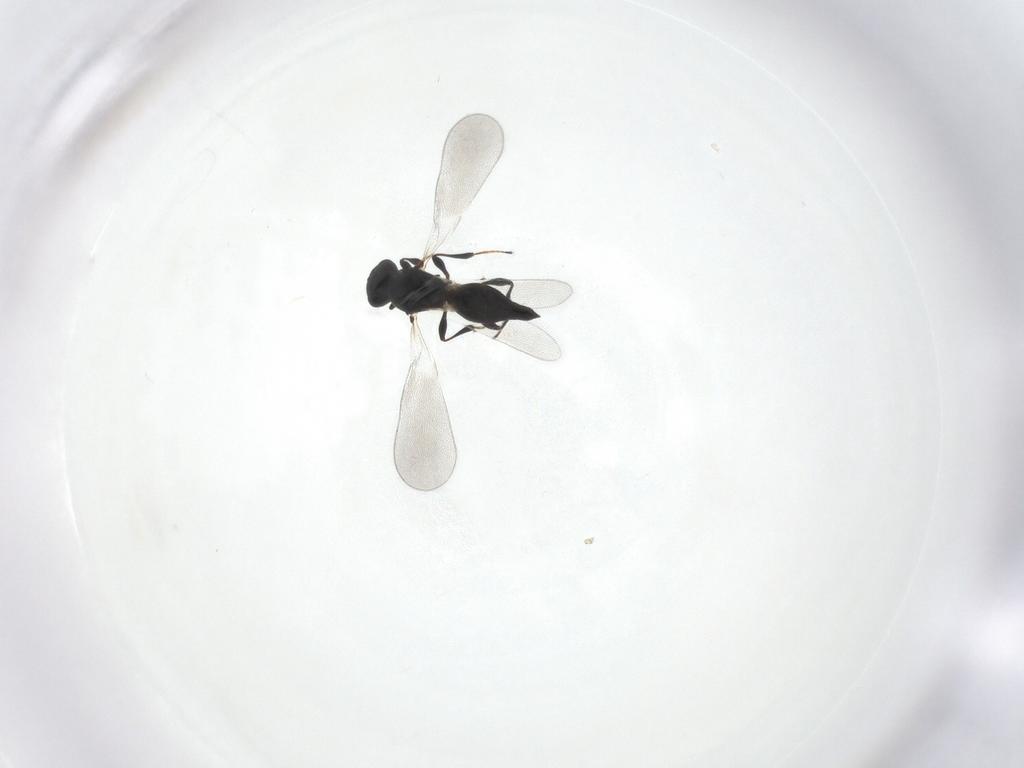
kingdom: Animalia
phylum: Arthropoda
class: Insecta
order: Hymenoptera
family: Platygastridae
